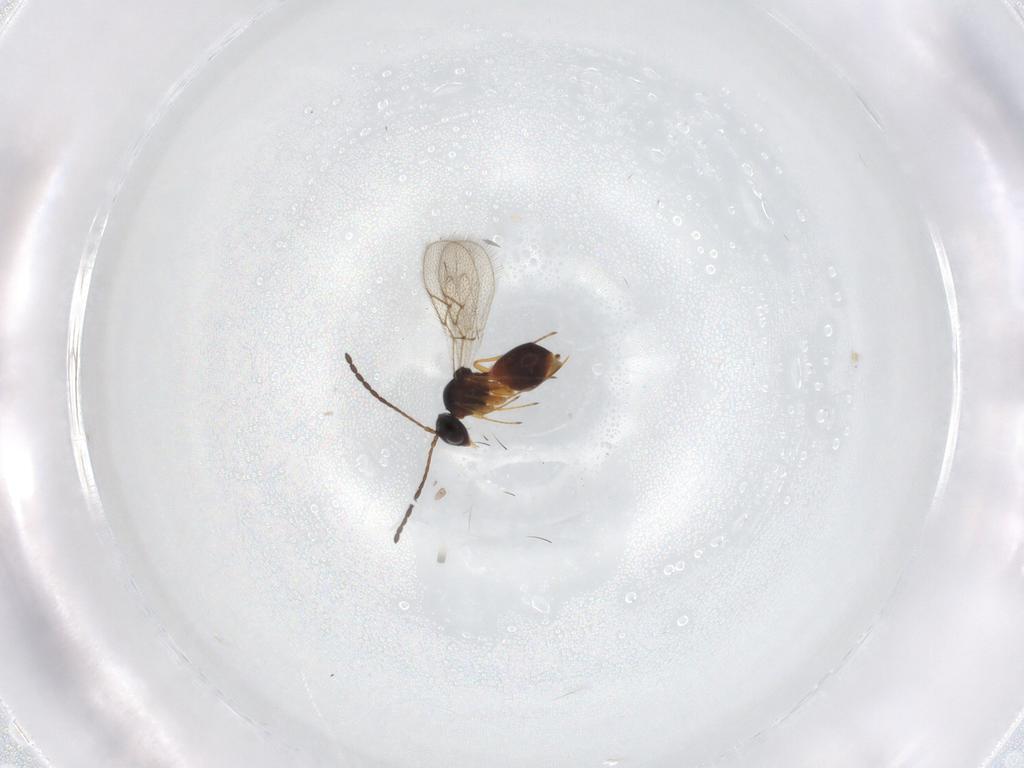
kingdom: Animalia
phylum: Arthropoda
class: Insecta
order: Hymenoptera
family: Figitidae
